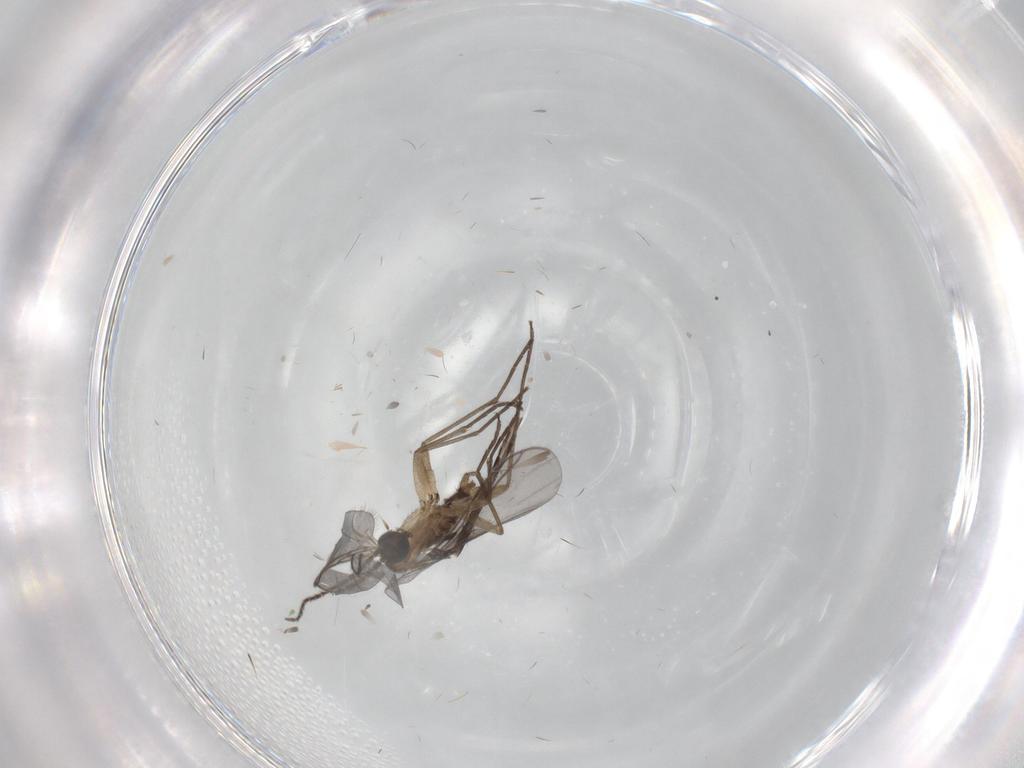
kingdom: Animalia
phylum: Arthropoda
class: Insecta
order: Diptera
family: Sciaridae
